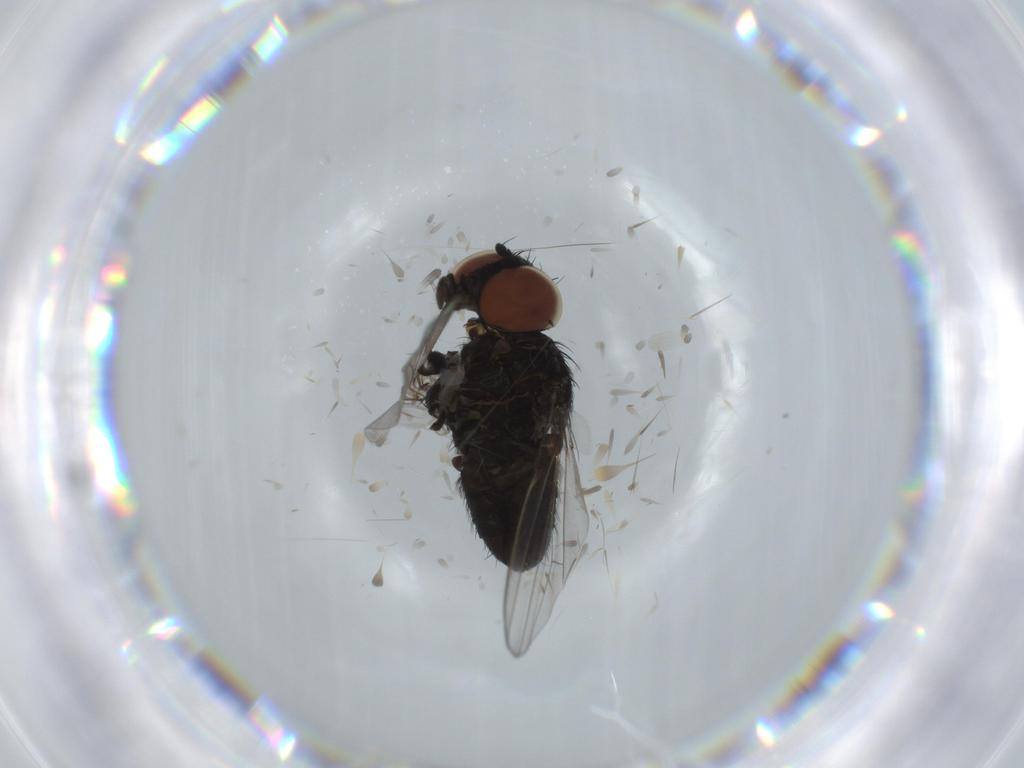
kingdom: Animalia
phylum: Arthropoda
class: Insecta
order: Diptera
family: Milichiidae
